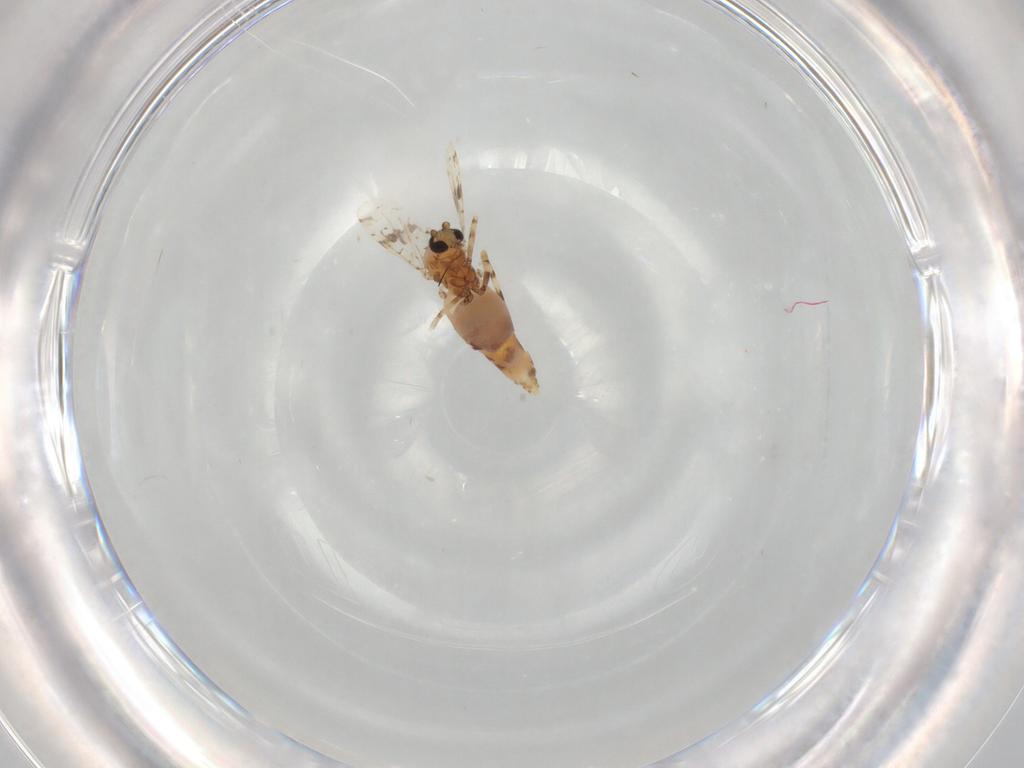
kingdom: Animalia
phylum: Arthropoda
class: Insecta
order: Diptera
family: Ceratopogonidae
